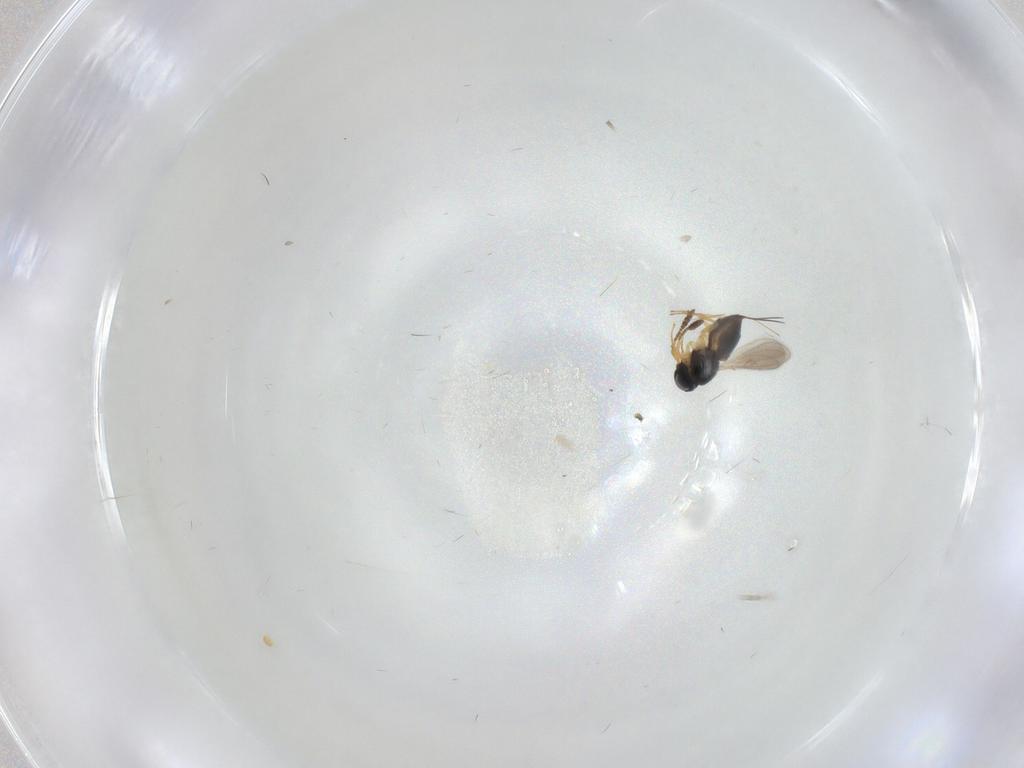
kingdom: Animalia
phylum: Arthropoda
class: Insecta
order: Hymenoptera
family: Scelionidae
